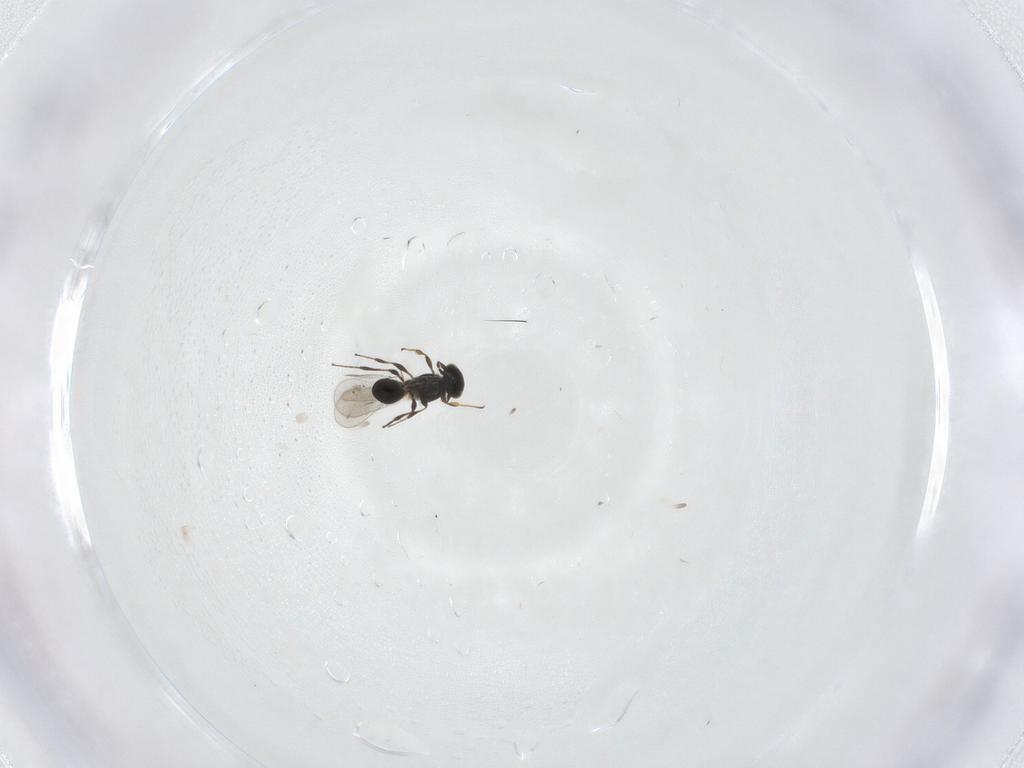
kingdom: Animalia
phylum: Arthropoda
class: Insecta
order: Hymenoptera
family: Platygastridae
